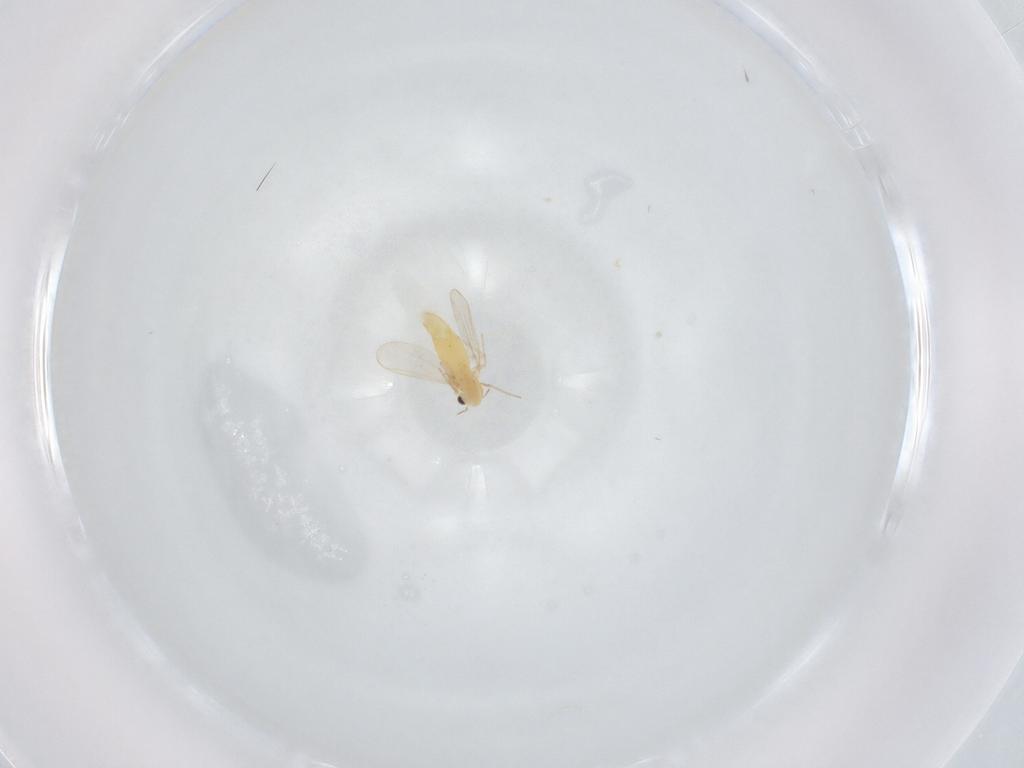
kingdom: Animalia
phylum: Arthropoda
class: Insecta
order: Diptera
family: Chironomidae
